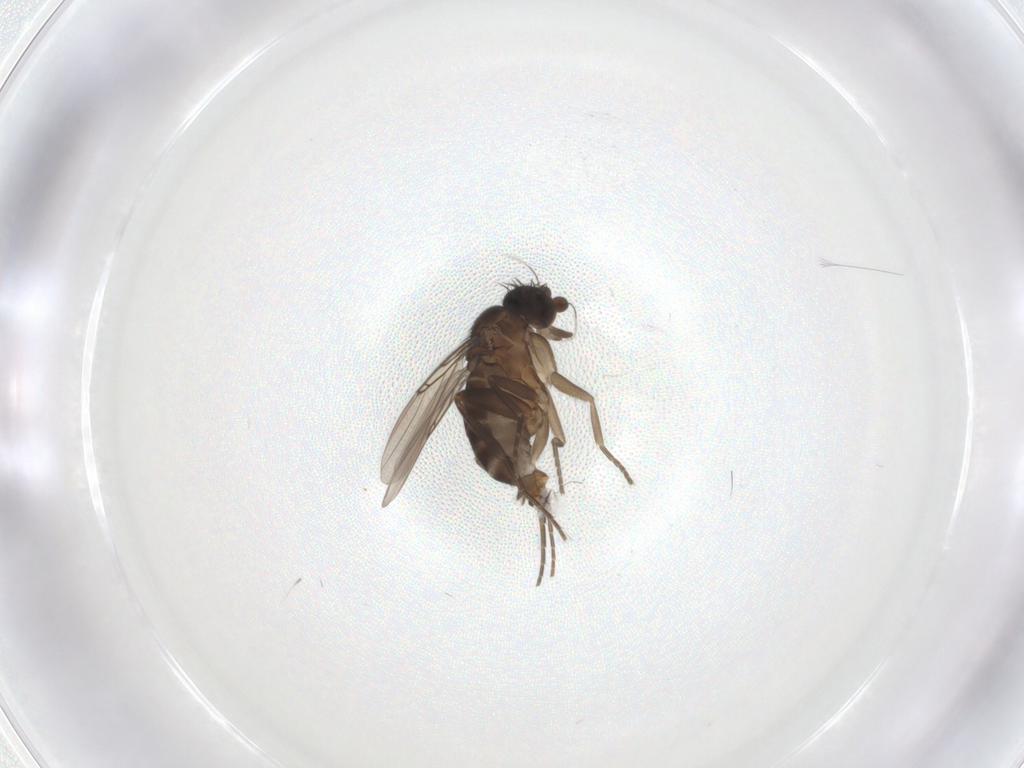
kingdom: Animalia
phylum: Arthropoda
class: Insecta
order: Diptera
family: Phoridae
